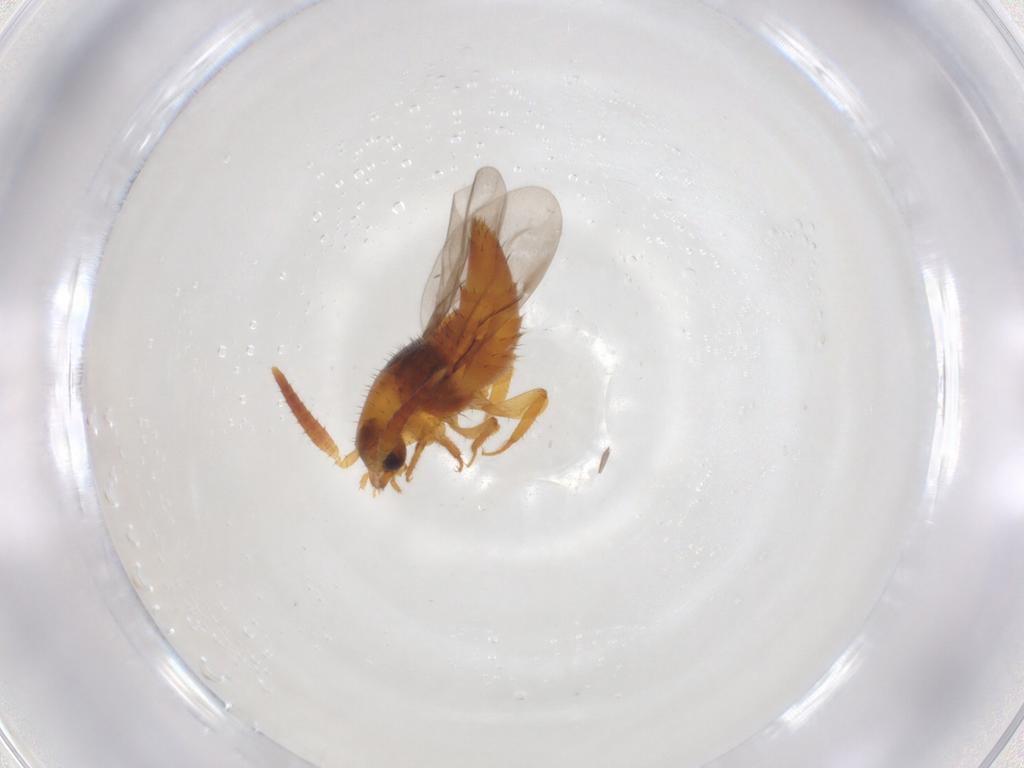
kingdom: Animalia
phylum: Arthropoda
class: Insecta
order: Coleoptera
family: Staphylinidae
